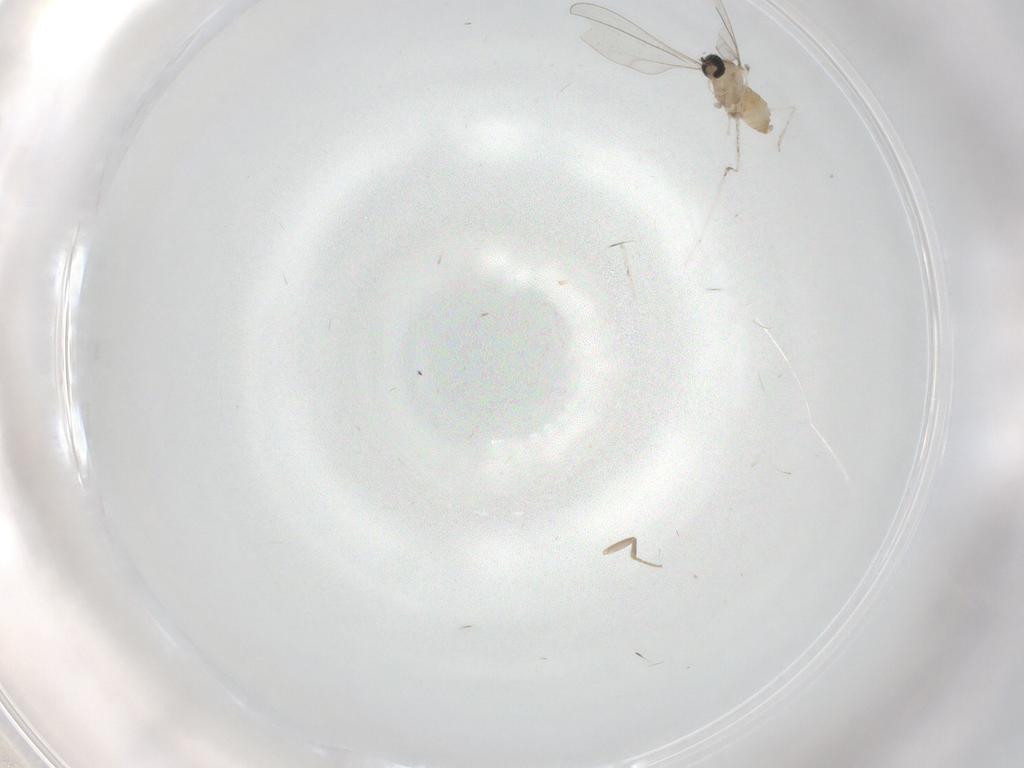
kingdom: Animalia
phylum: Arthropoda
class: Insecta
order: Diptera
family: Cecidomyiidae
